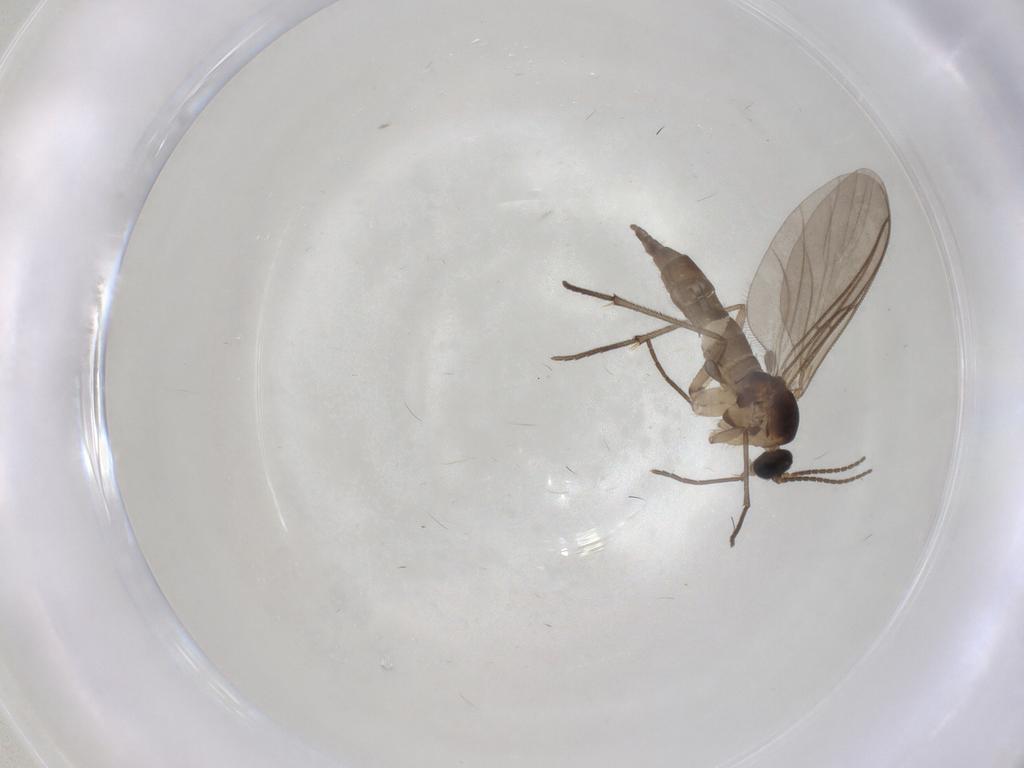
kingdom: Animalia
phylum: Arthropoda
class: Insecta
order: Diptera
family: Sciaridae
